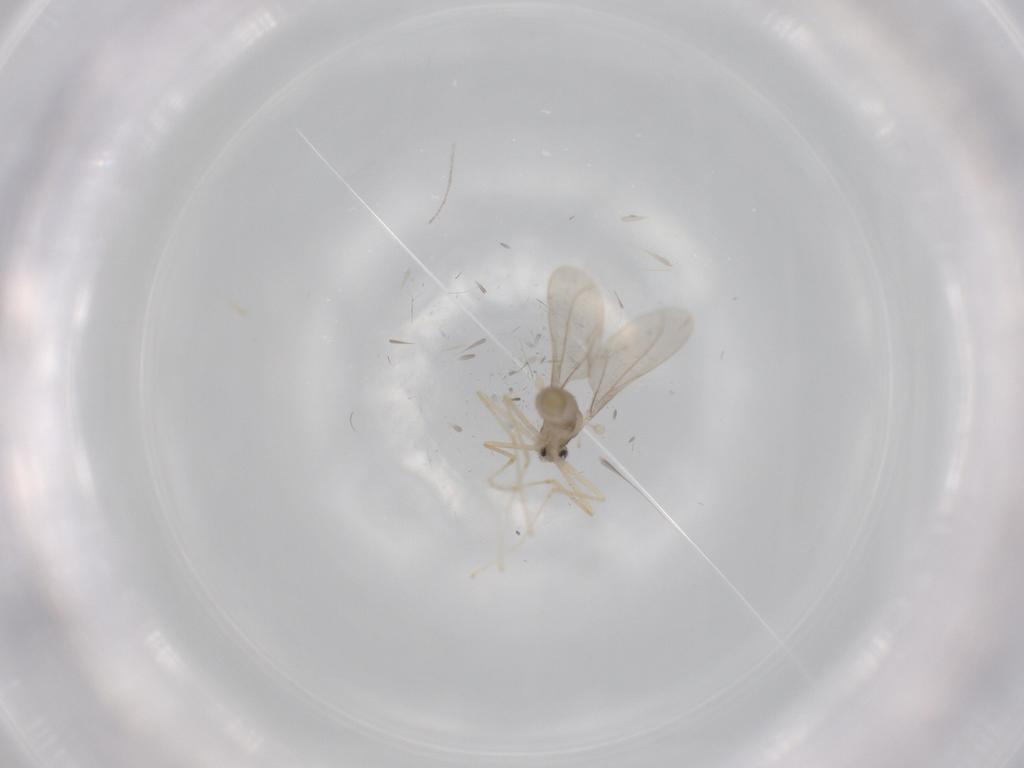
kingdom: Animalia
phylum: Arthropoda
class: Insecta
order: Diptera
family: Cecidomyiidae
